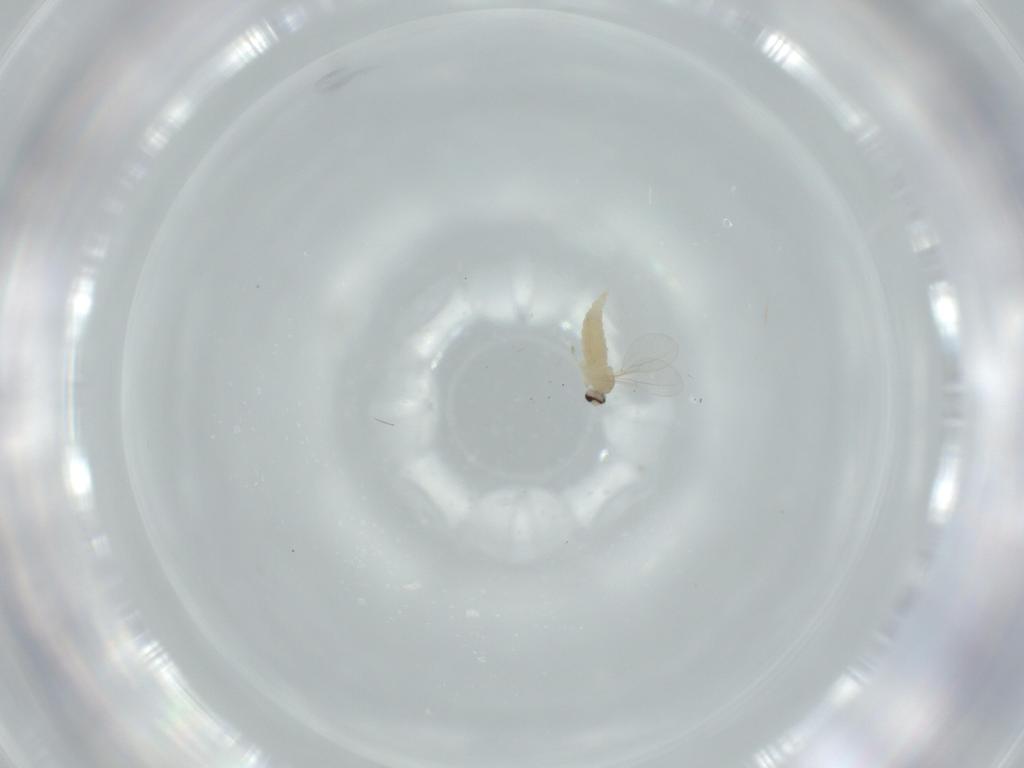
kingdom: Animalia
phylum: Arthropoda
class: Insecta
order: Diptera
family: Cecidomyiidae
